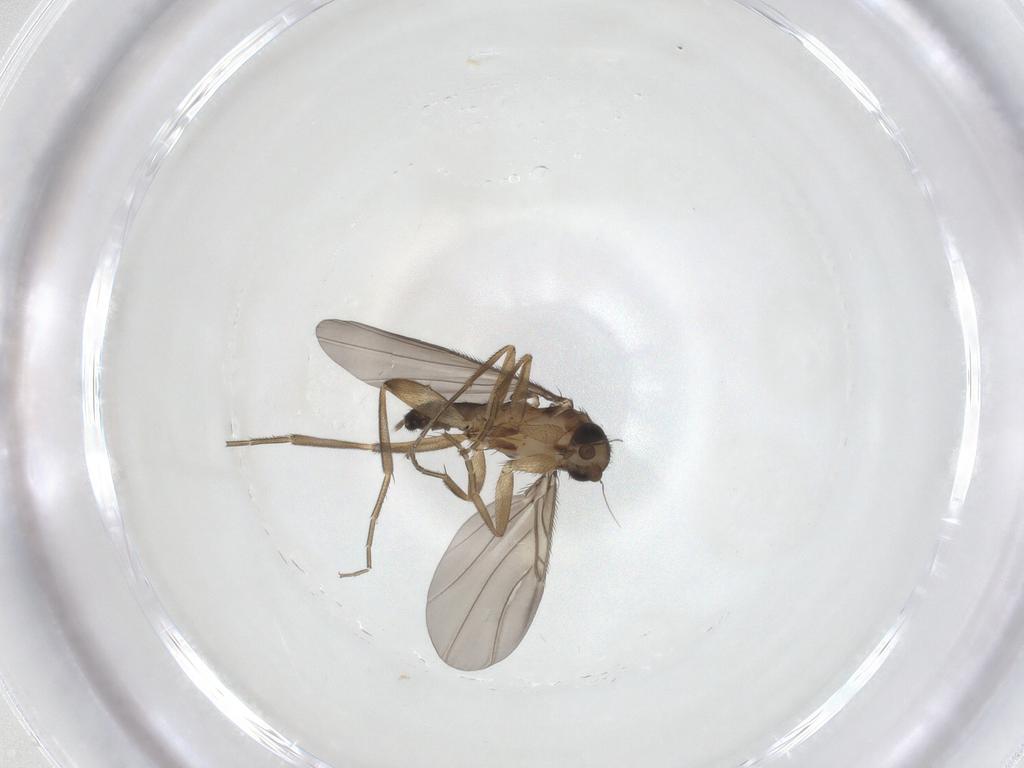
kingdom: Animalia
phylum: Arthropoda
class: Insecta
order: Diptera
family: Phoridae
